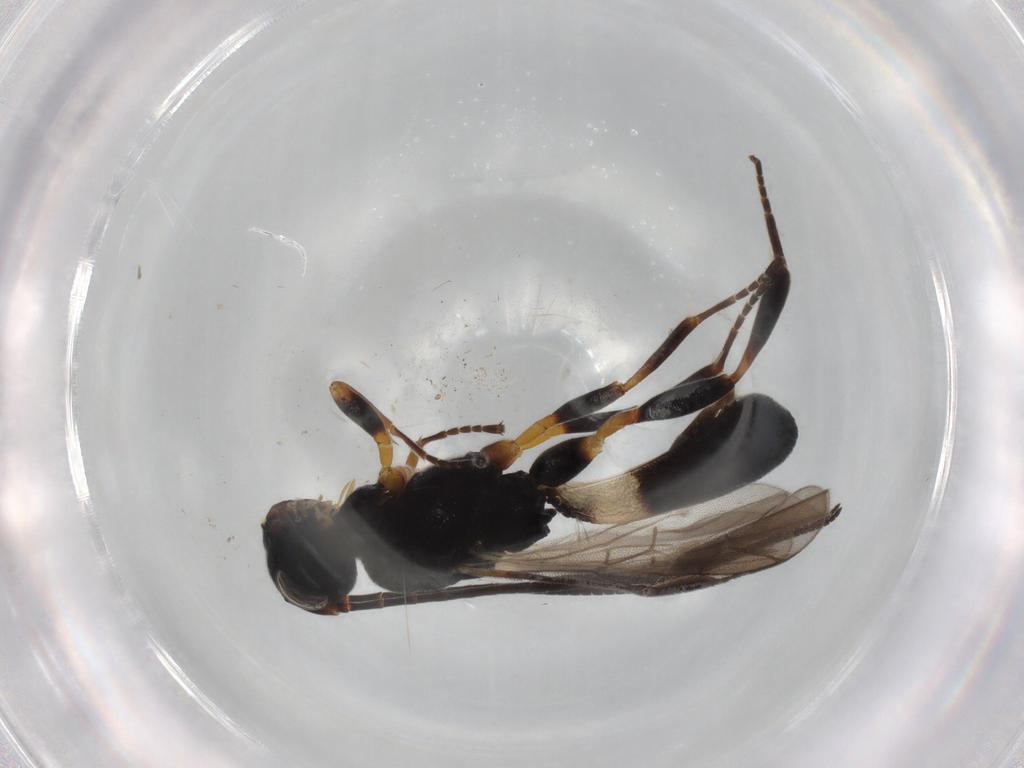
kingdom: Animalia
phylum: Arthropoda
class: Insecta
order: Hymenoptera
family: Braconidae
